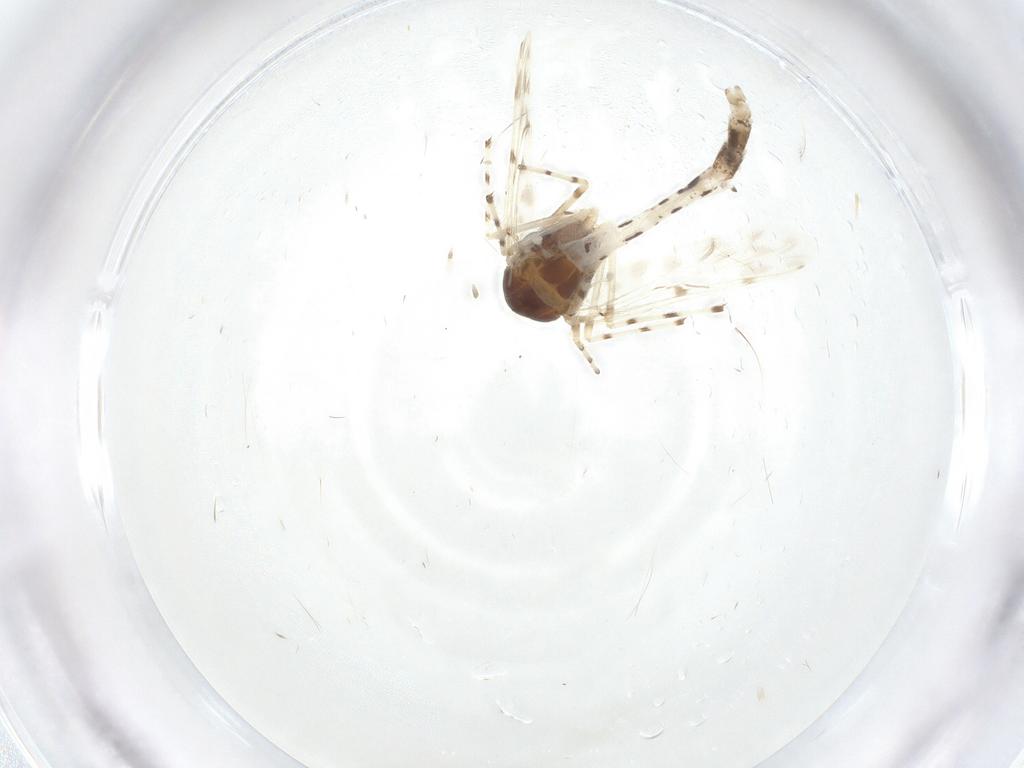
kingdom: Animalia
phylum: Arthropoda
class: Insecta
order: Diptera
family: Chironomidae
